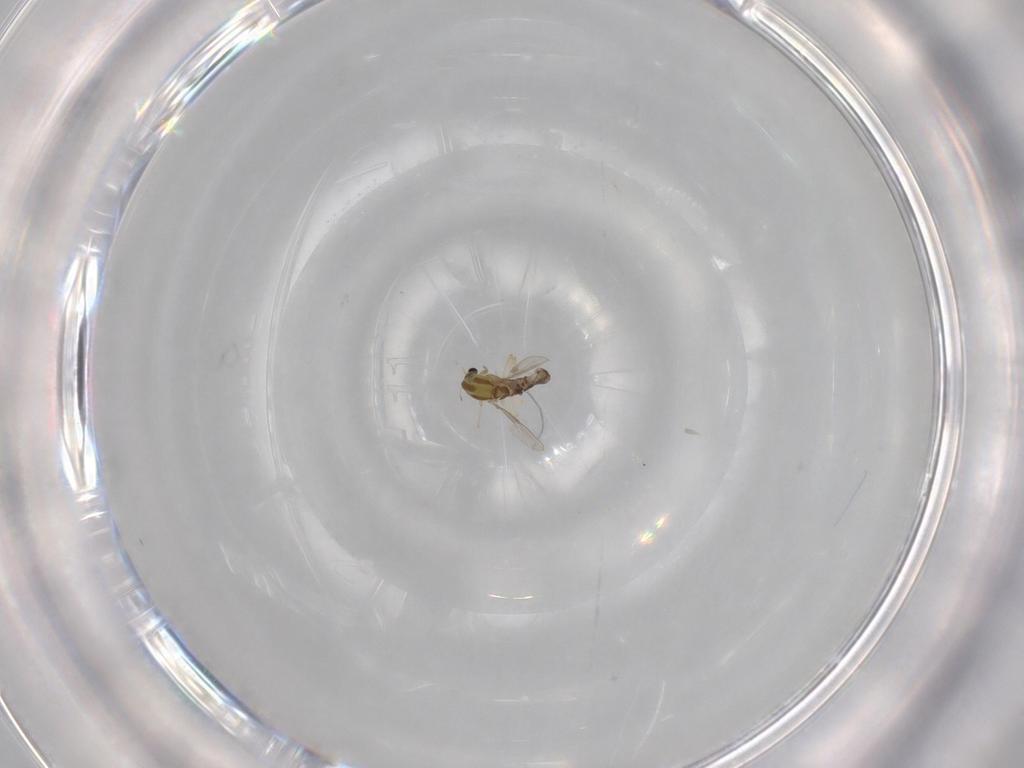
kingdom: Animalia
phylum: Arthropoda
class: Insecta
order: Diptera
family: Chironomidae
